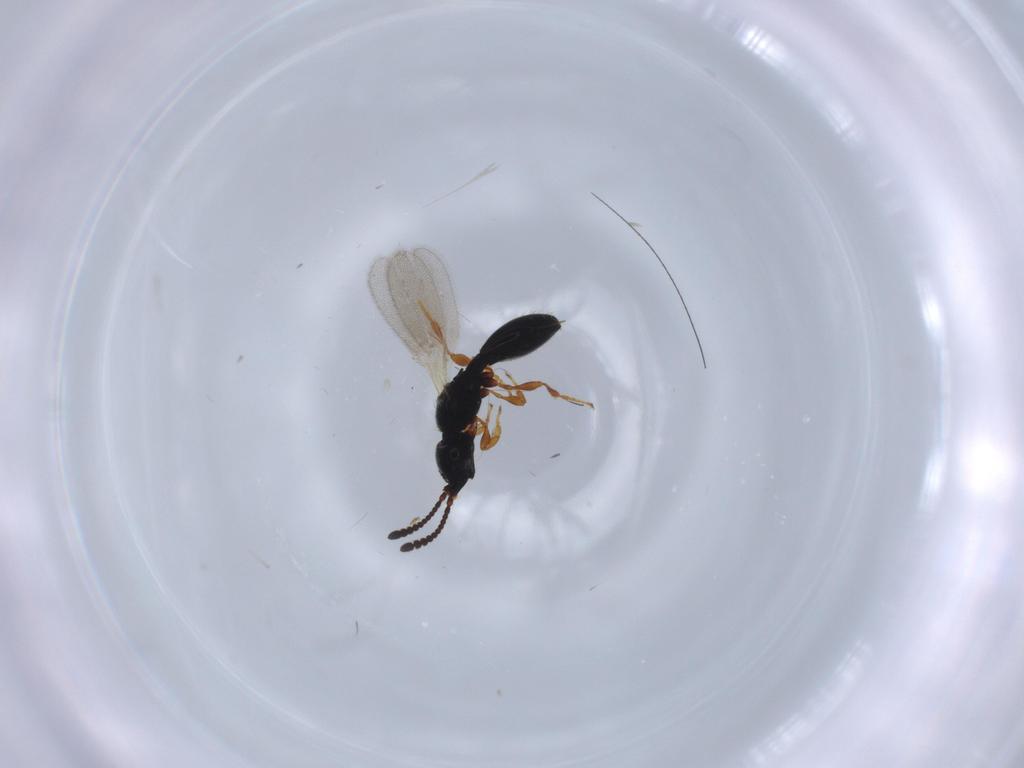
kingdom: Animalia
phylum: Arthropoda
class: Insecta
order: Hymenoptera
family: Diapriidae
